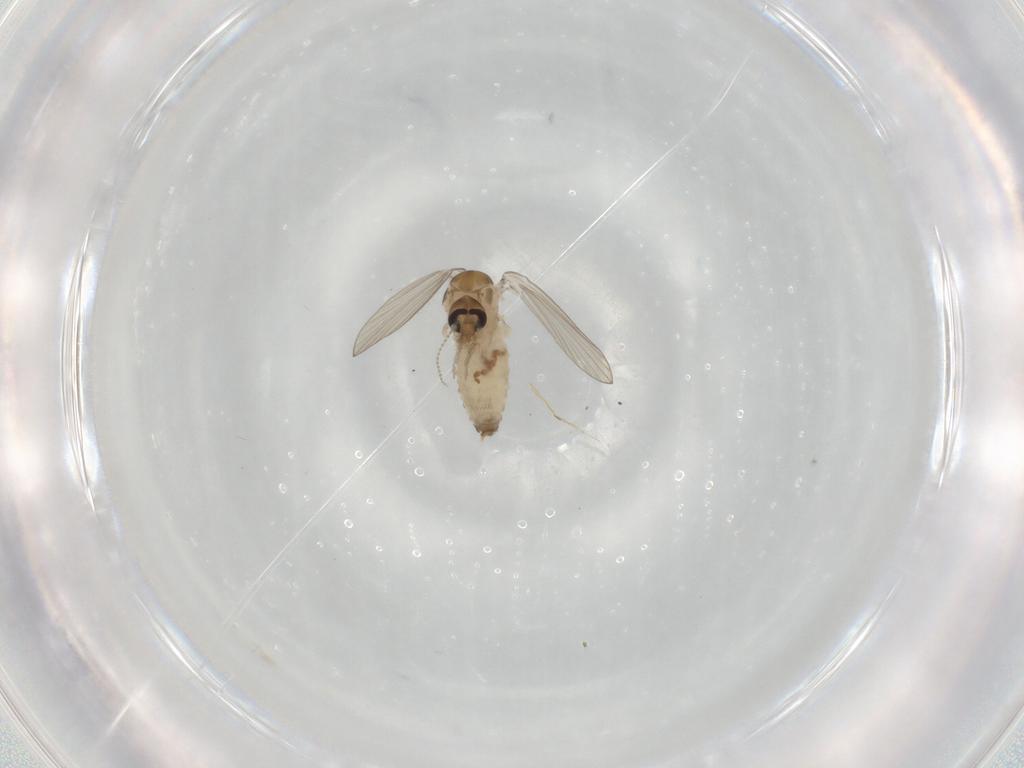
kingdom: Animalia
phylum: Arthropoda
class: Insecta
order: Diptera
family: Psychodidae
